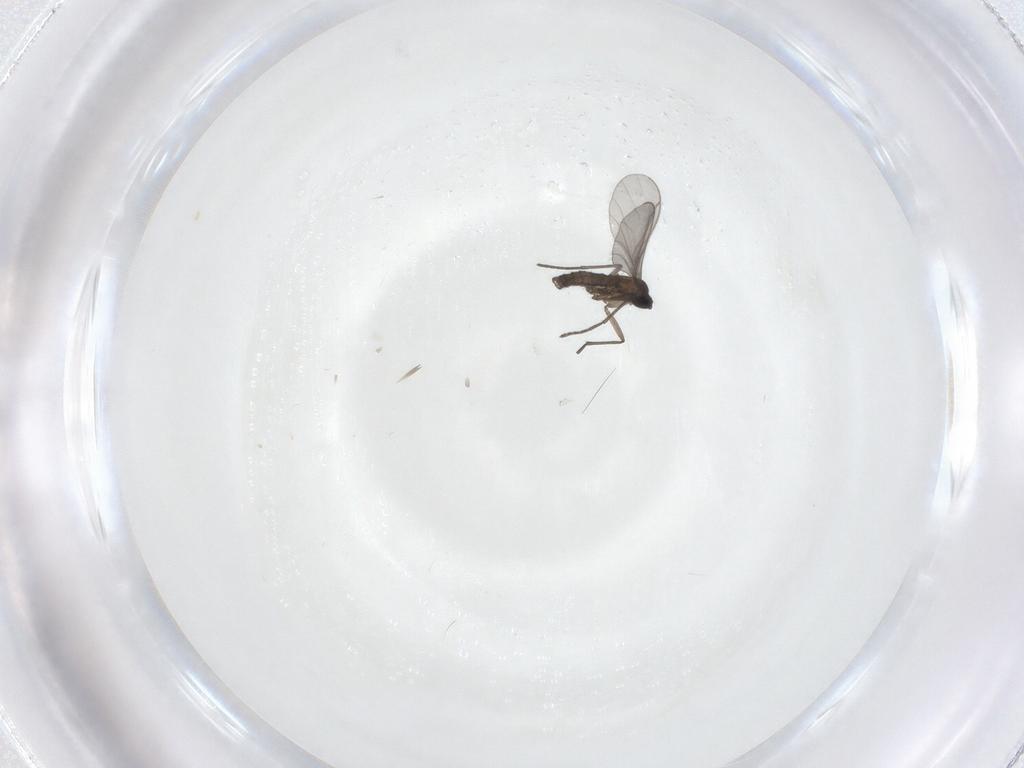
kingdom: Animalia
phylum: Arthropoda
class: Insecta
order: Diptera
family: Sciaridae
